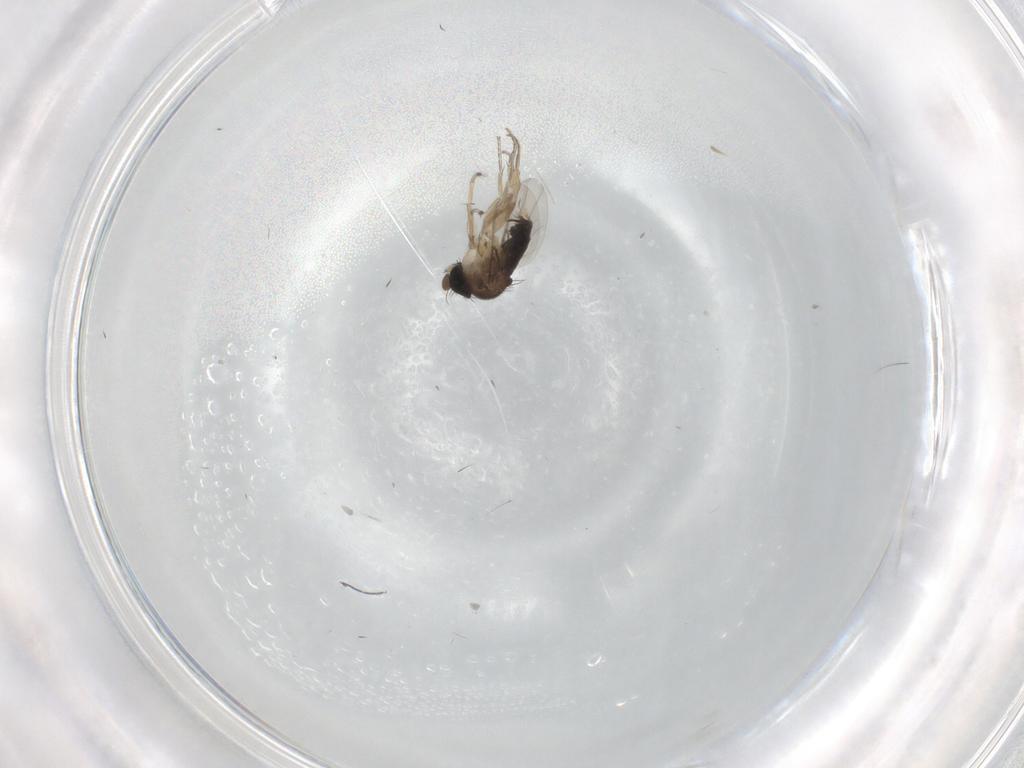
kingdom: Animalia
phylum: Arthropoda
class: Insecta
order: Diptera
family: Phoridae
